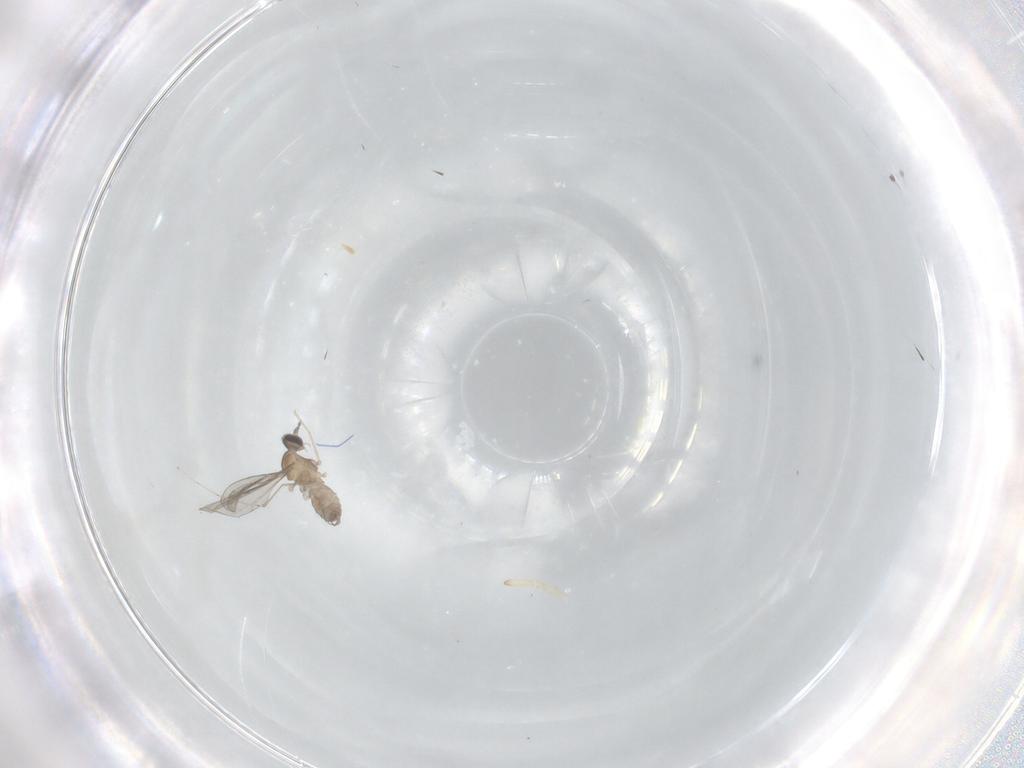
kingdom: Animalia
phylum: Arthropoda
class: Insecta
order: Diptera
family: Cecidomyiidae
